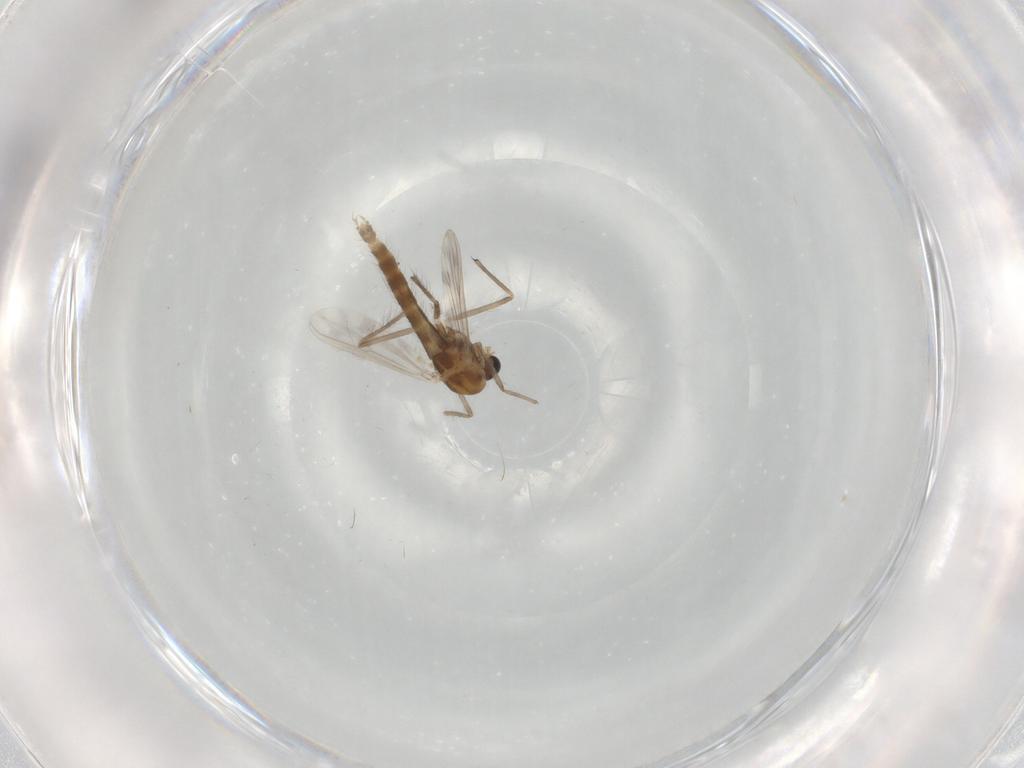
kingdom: Animalia
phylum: Arthropoda
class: Insecta
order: Diptera
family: Chironomidae
